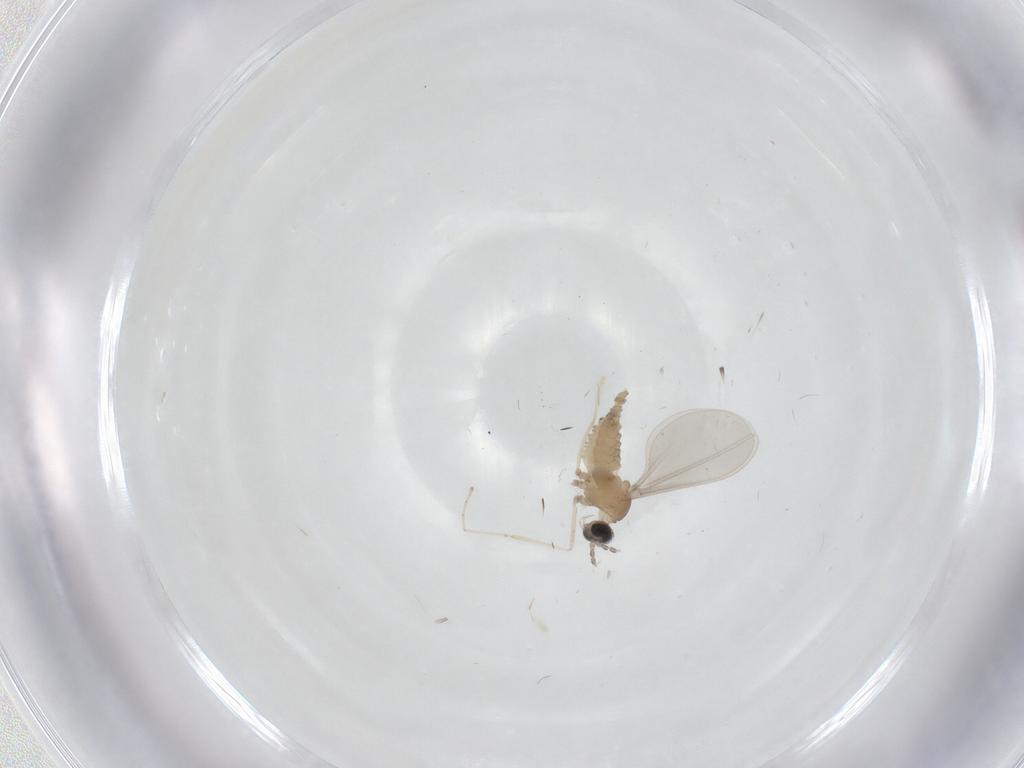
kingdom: Animalia
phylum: Arthropoda
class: Insecta
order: Diptera
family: Cecidomyiidae
